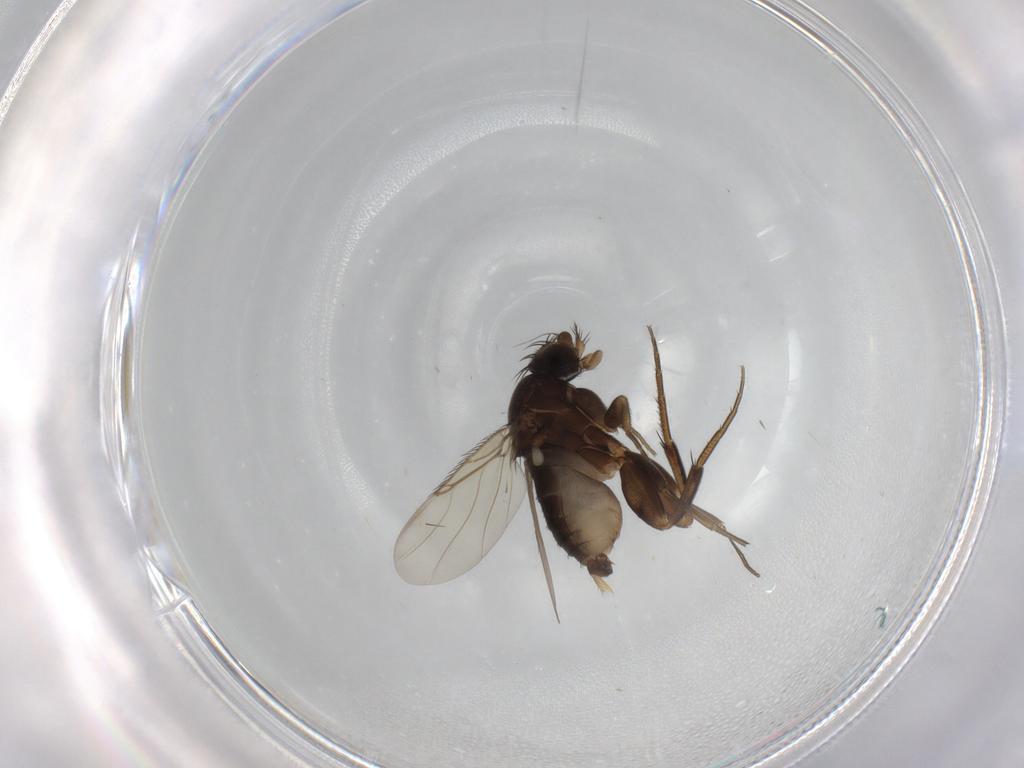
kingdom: Animalia
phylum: Arthropoda
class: Insecta
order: Diptera
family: Phoridae
